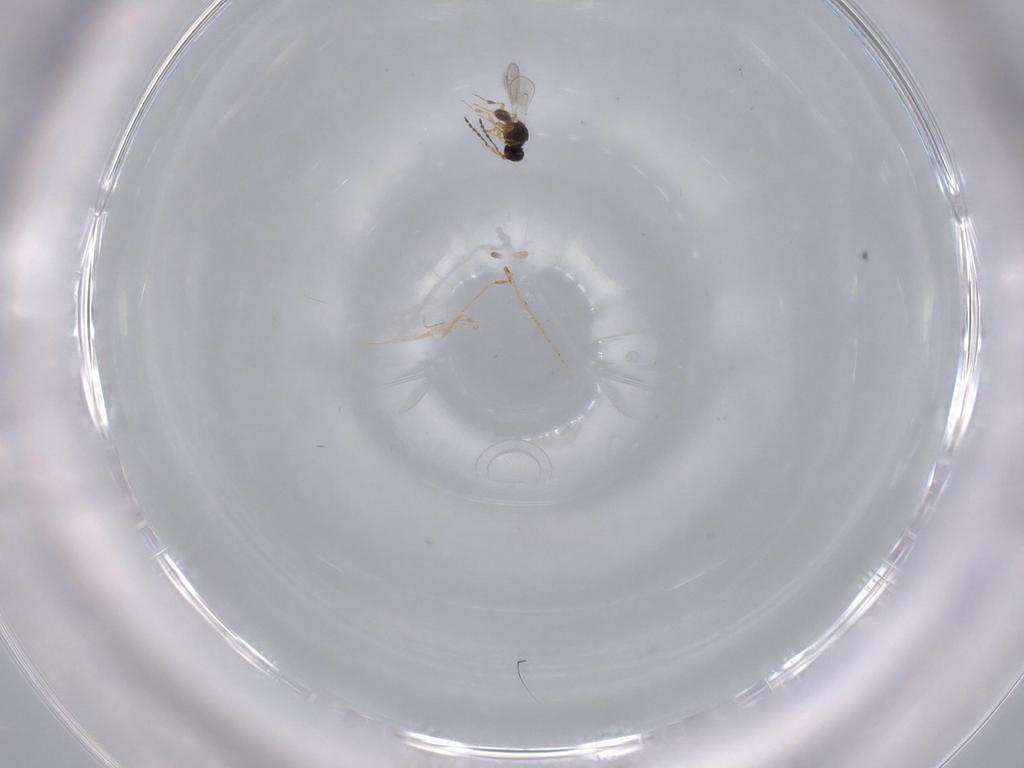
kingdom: Animalia
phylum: Arthropoda
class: Insecta
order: Hymenoptera
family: Platygastridae
